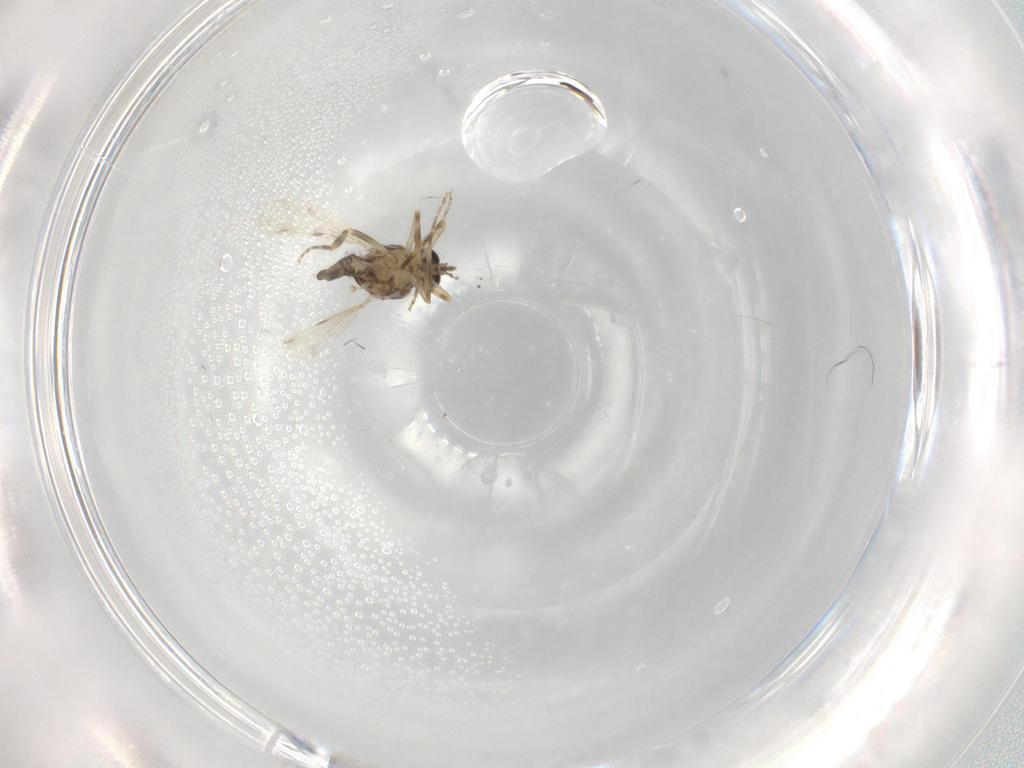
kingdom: Animalia
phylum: Arthropoda
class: Insecta
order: Diptera
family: Ceratopogonidae
